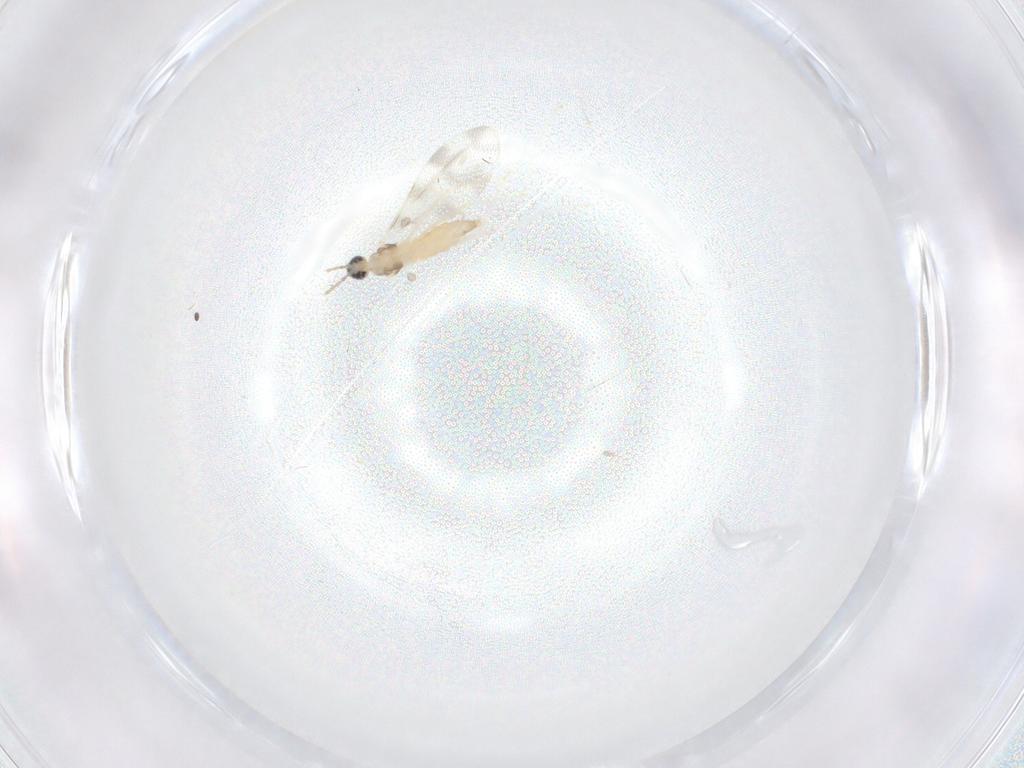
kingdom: Animalia
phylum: Arthropoda
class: Insecta
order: Diptera
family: Cecidomyiidae
